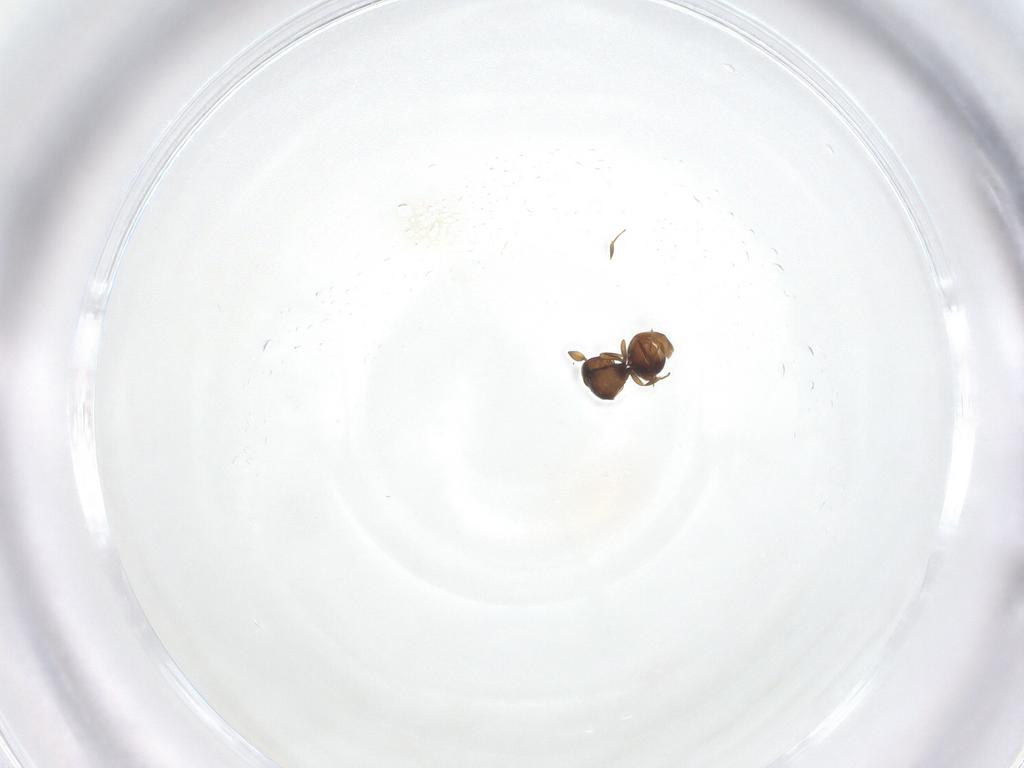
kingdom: Animalia
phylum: Arthropoda
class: Insecta
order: Hymenoptera
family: Scelionidae
